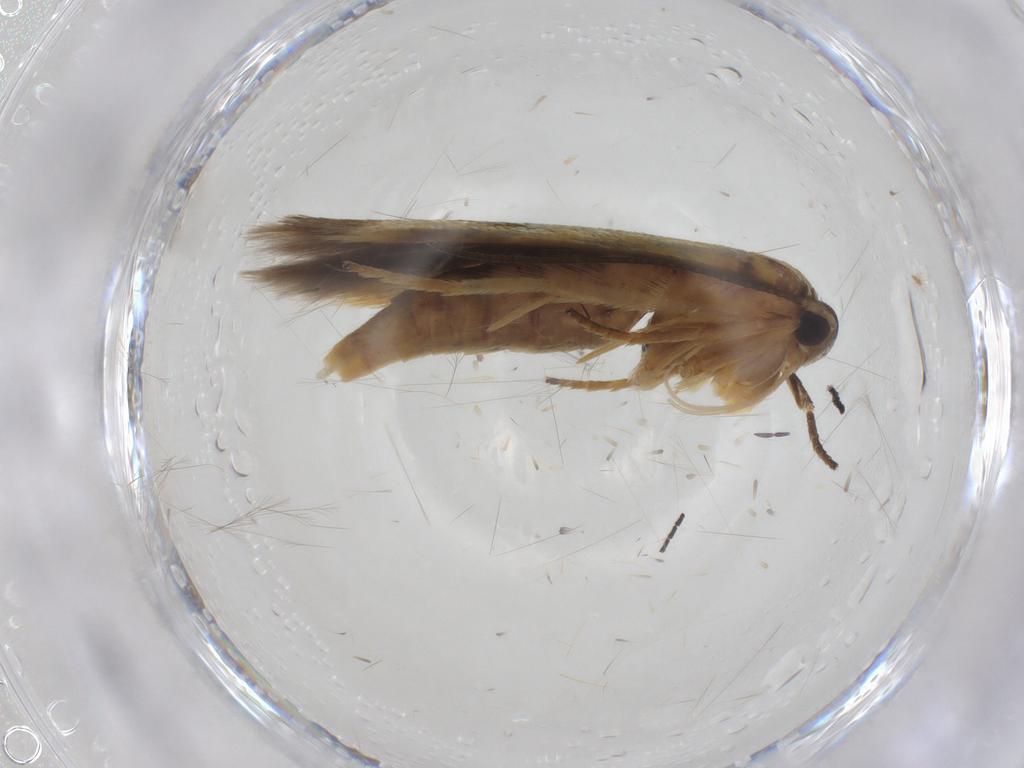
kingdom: Animalia
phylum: Arthropoda
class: Insecta
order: Lepidoptera
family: Stathmopodidae
